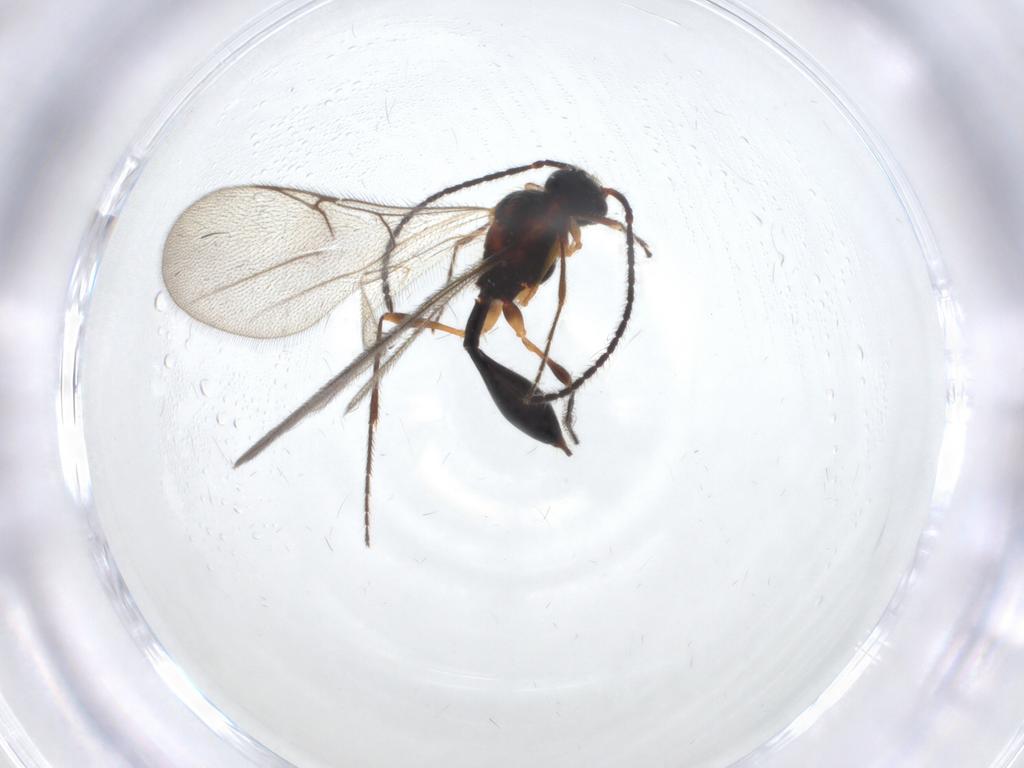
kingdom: Animalia
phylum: Arthropoda
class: Insecta
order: Hymenoptera
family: Diapriidae
